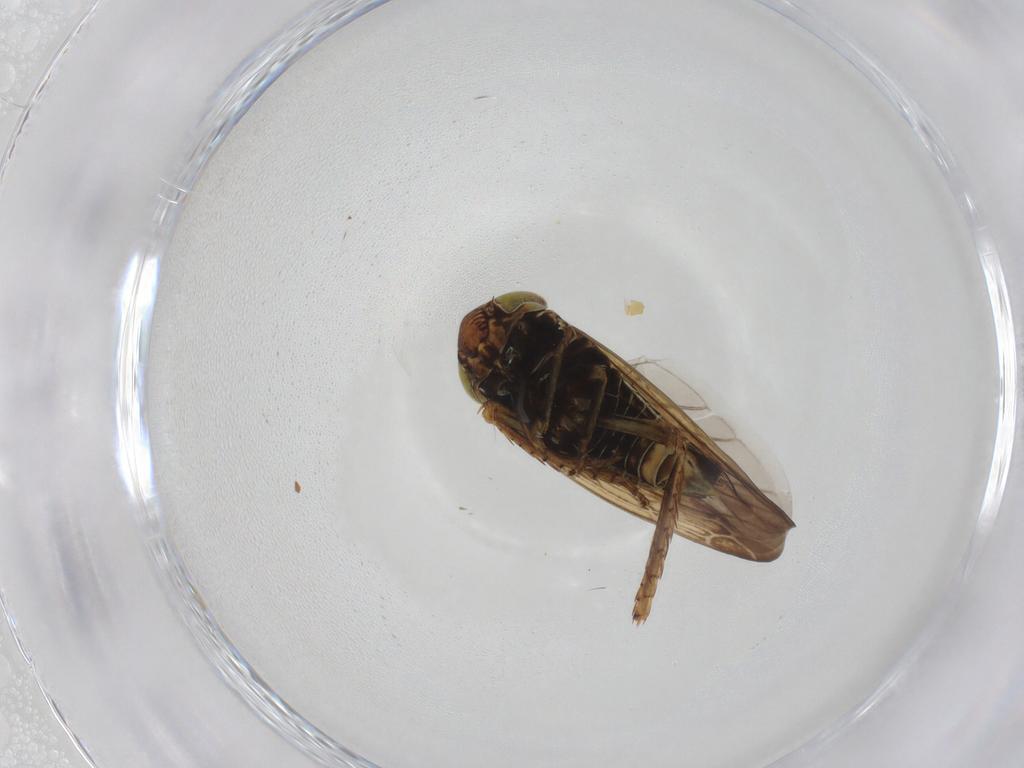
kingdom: Animalia
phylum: Arthropoda
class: Insecta
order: Hemiptera
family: Miridae
